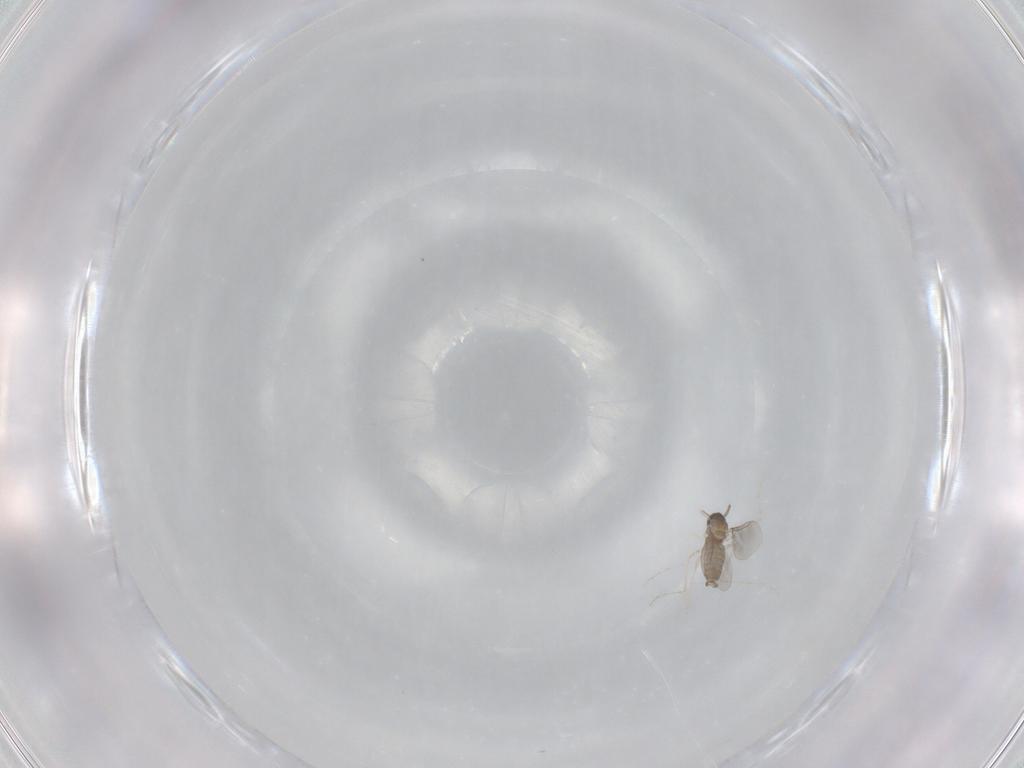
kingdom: Animalia
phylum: Arthropoda
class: Insecta
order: Diptera
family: Cecidomyiidae
